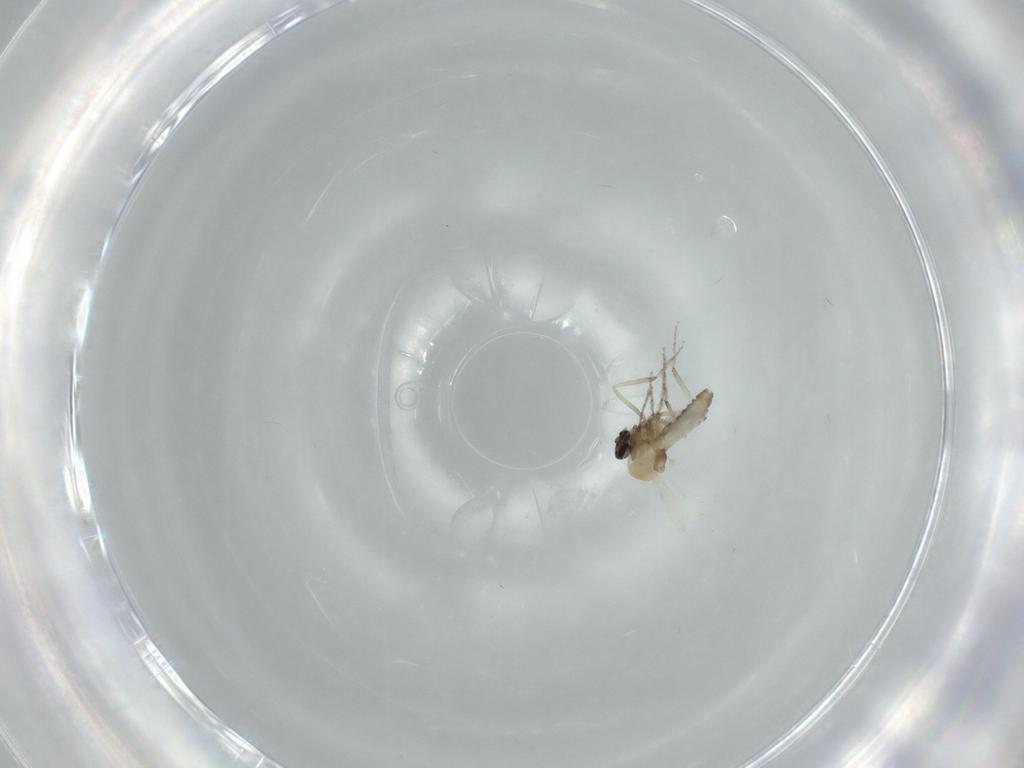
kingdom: Animalia
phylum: Arthropoda
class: Insecta
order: Diptera
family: Ceratopogonidae
